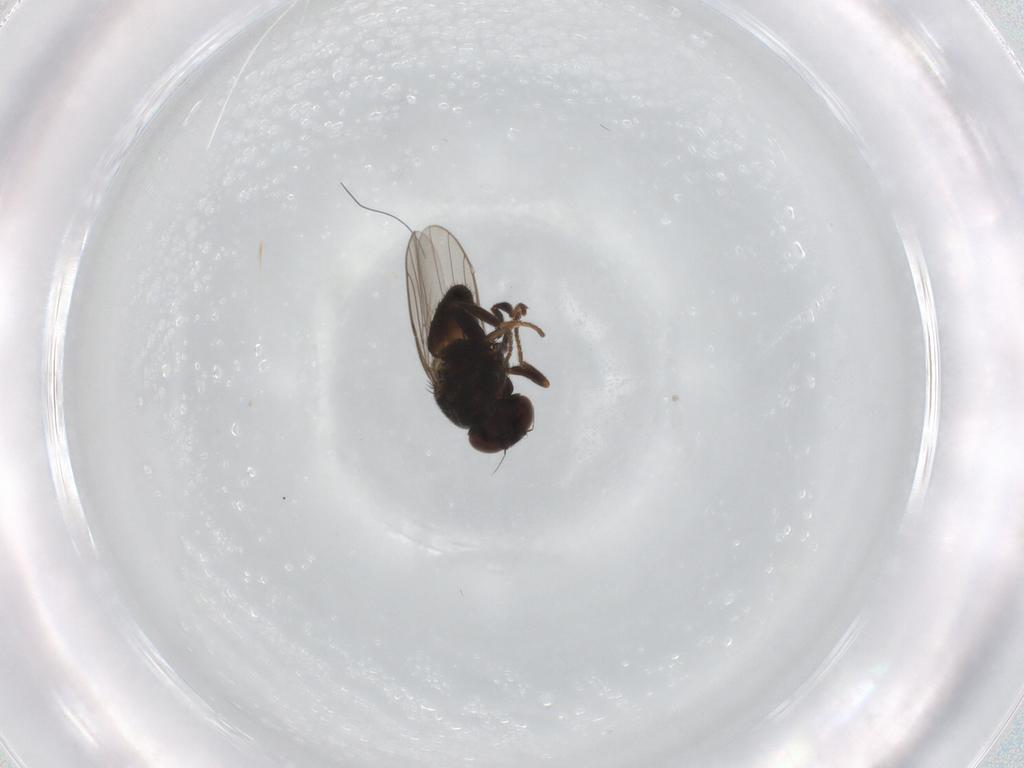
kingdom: Animalia
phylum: Arthropoda
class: Insecta
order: Diptera
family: Chloropidae
